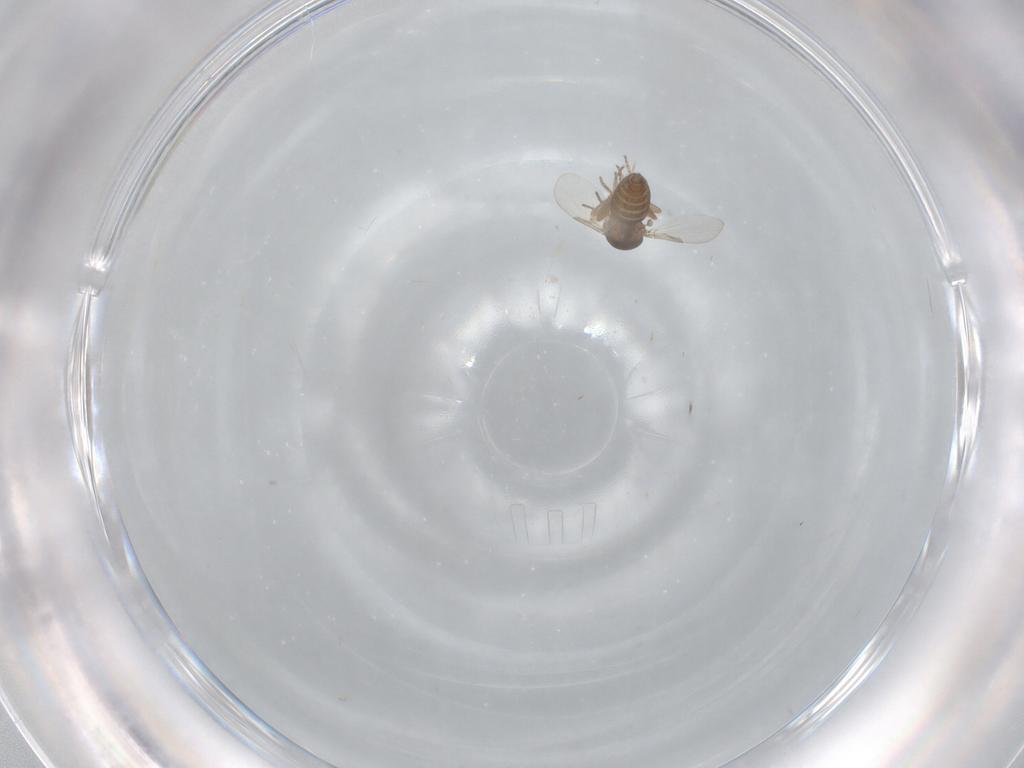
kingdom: Animalia
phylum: Arthropoda
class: Insecta
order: Diptera
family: Ceratopogonidae
